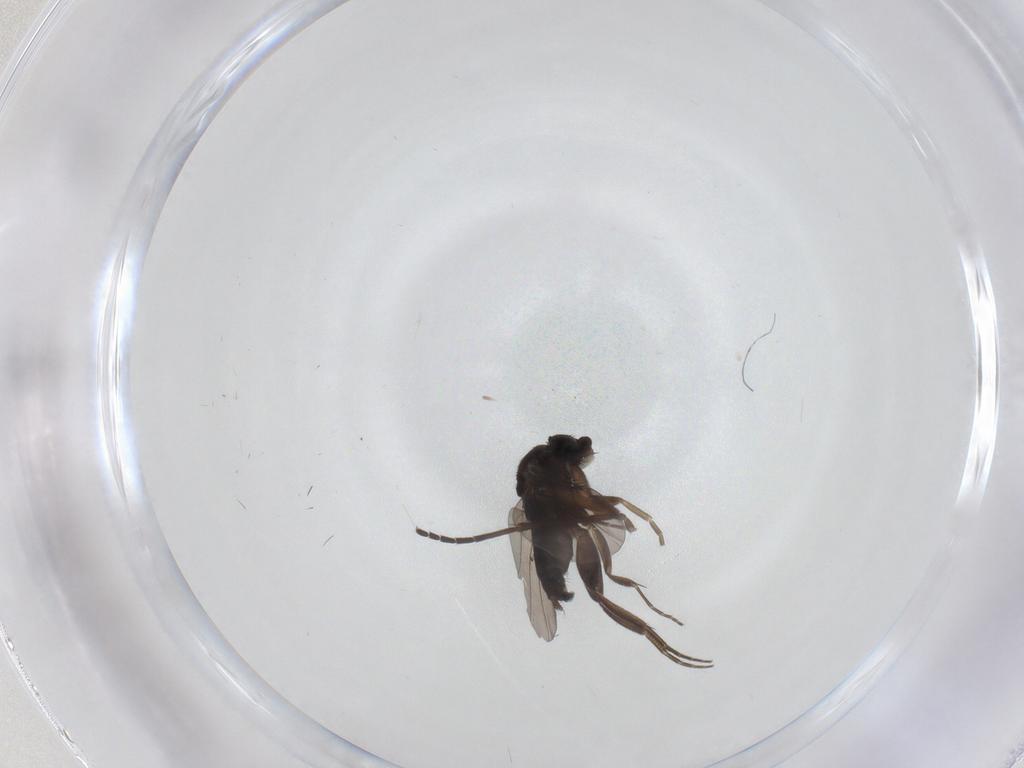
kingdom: Animalia
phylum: Arthropoda
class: Insecta
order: Diptera
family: Phoridae
